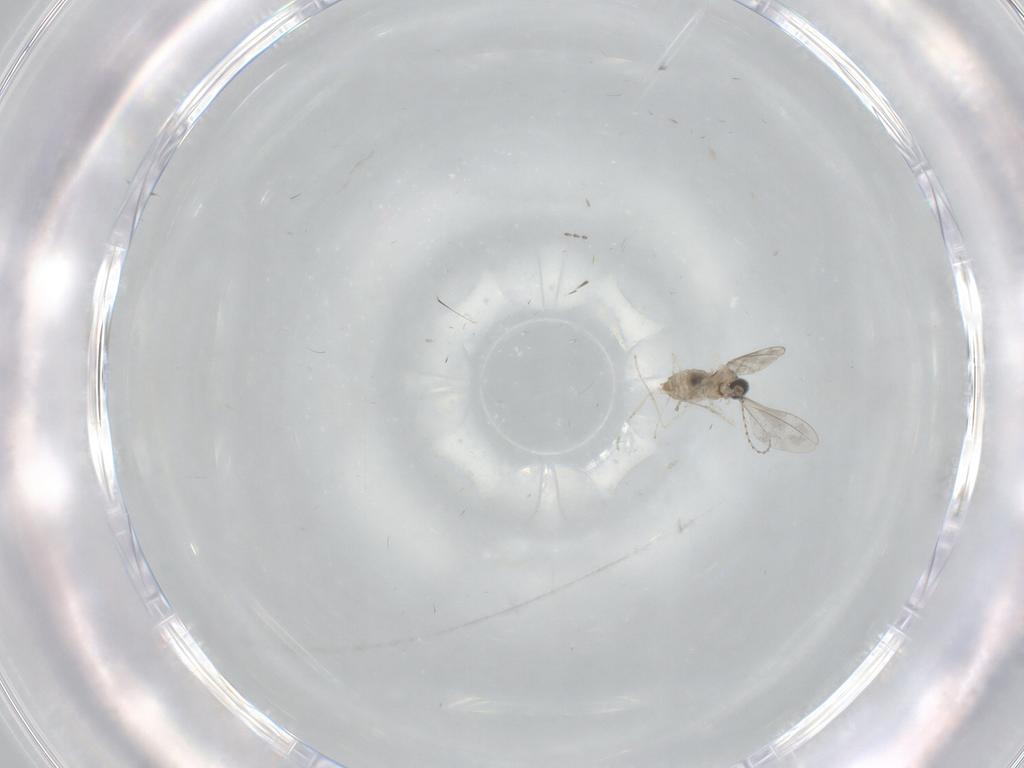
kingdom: Animalia
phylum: Arthropoda
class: Insecta
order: Diptera
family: Cecidomyiidae
